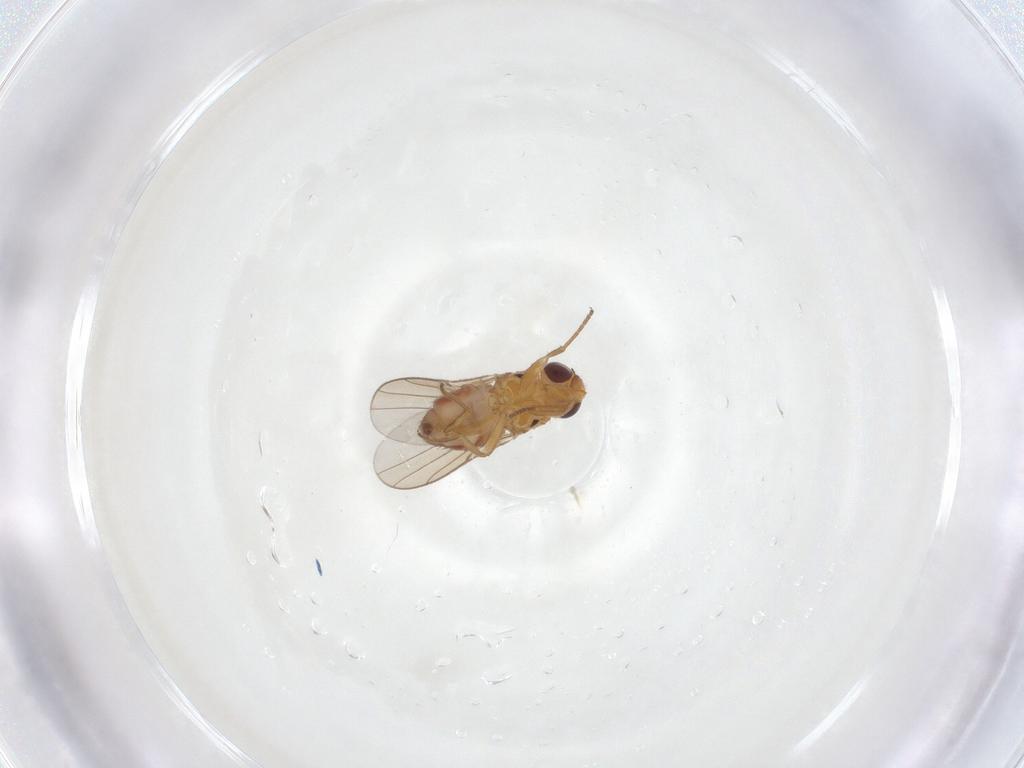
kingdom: Animalia
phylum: Arthropoda
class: Insecta
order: Diptera
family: Chloropidae
